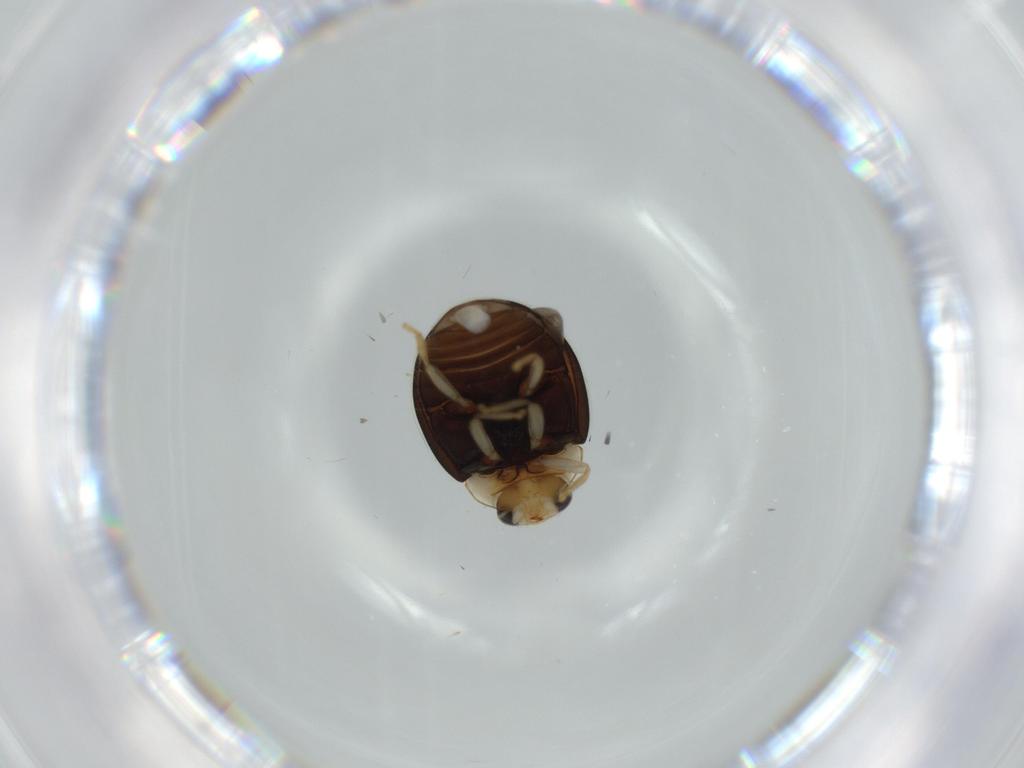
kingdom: Animalia
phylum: Arthropoda
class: Insecta
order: Coleoptera
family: Coccinellidae
